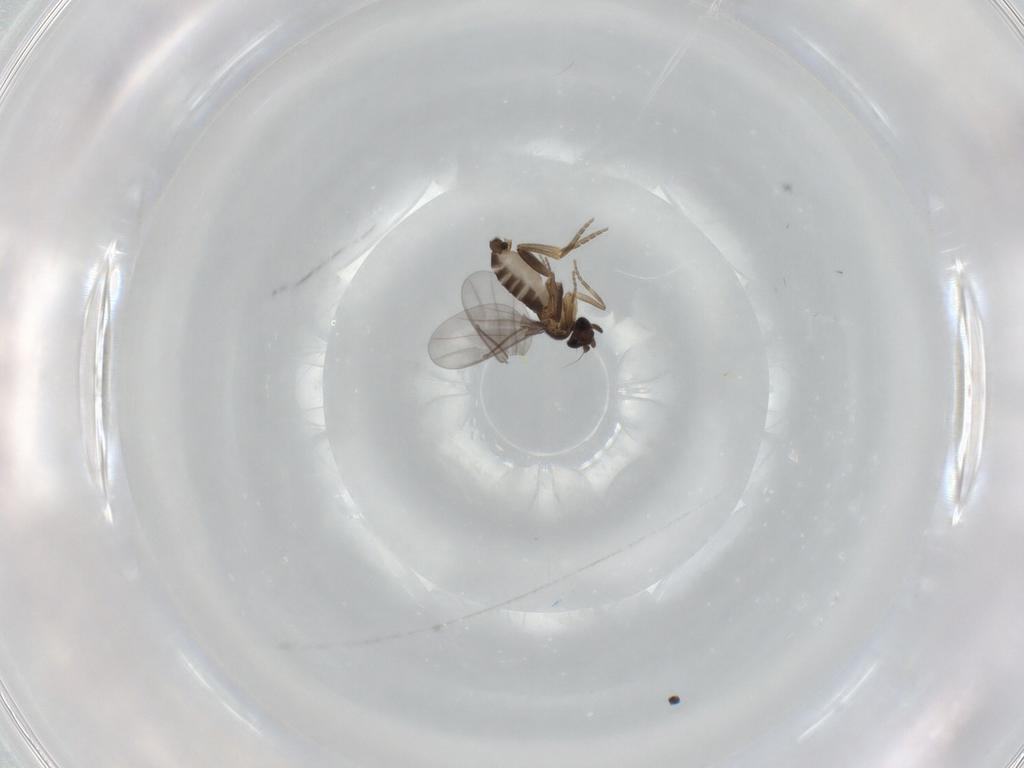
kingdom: Animalia
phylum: Arthropoda
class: Insecta
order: Diptera
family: Phoridae
